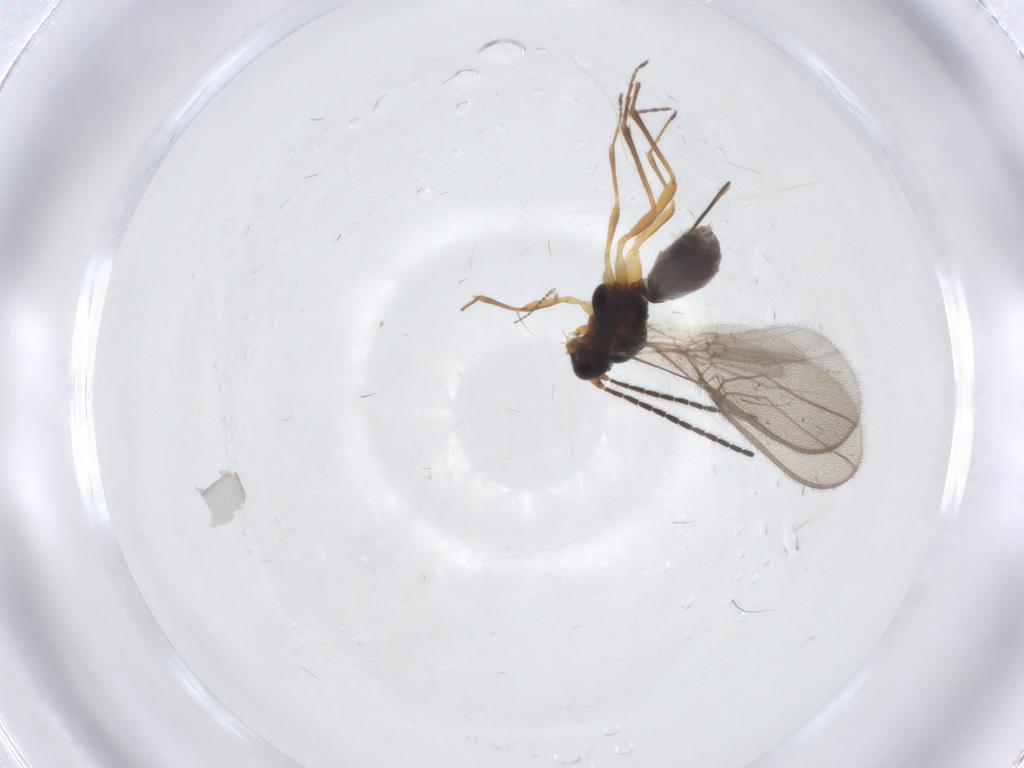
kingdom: Animalia
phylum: Arthropoda
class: Insecta
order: Hymenoptera
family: Braconidae
